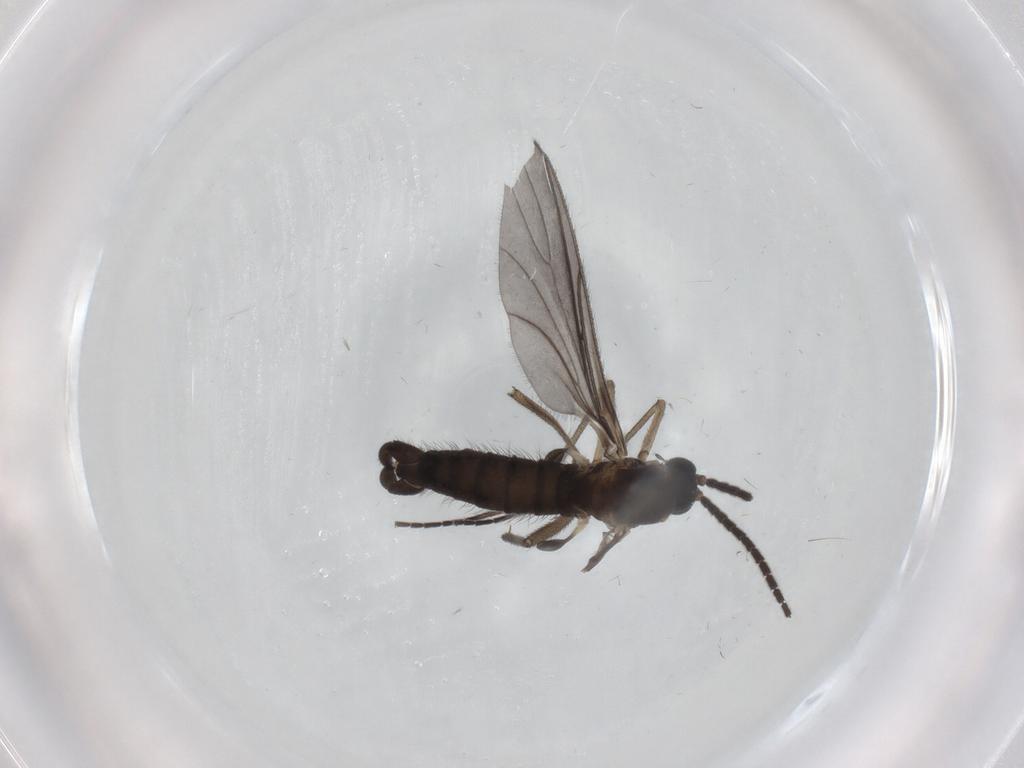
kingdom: Animalia
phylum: Arthropoda
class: Insecta
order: Diptera
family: Sciaridae
